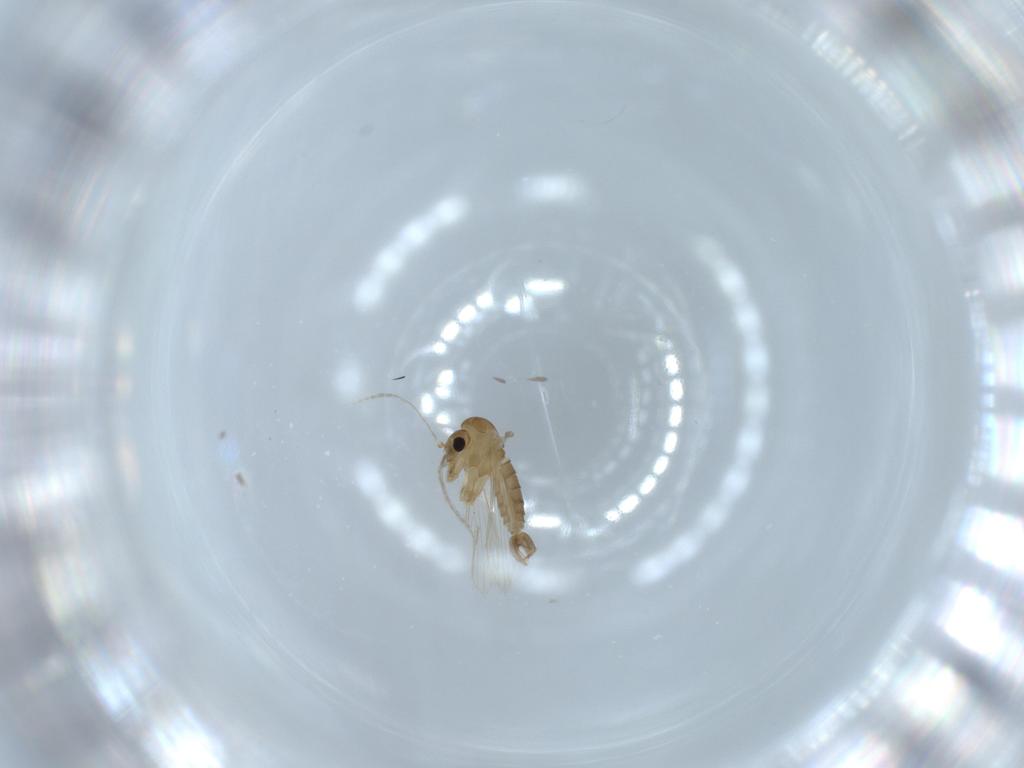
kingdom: Animalia
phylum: Arthropoda
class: Insecta
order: Diptera
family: Psychodidae
